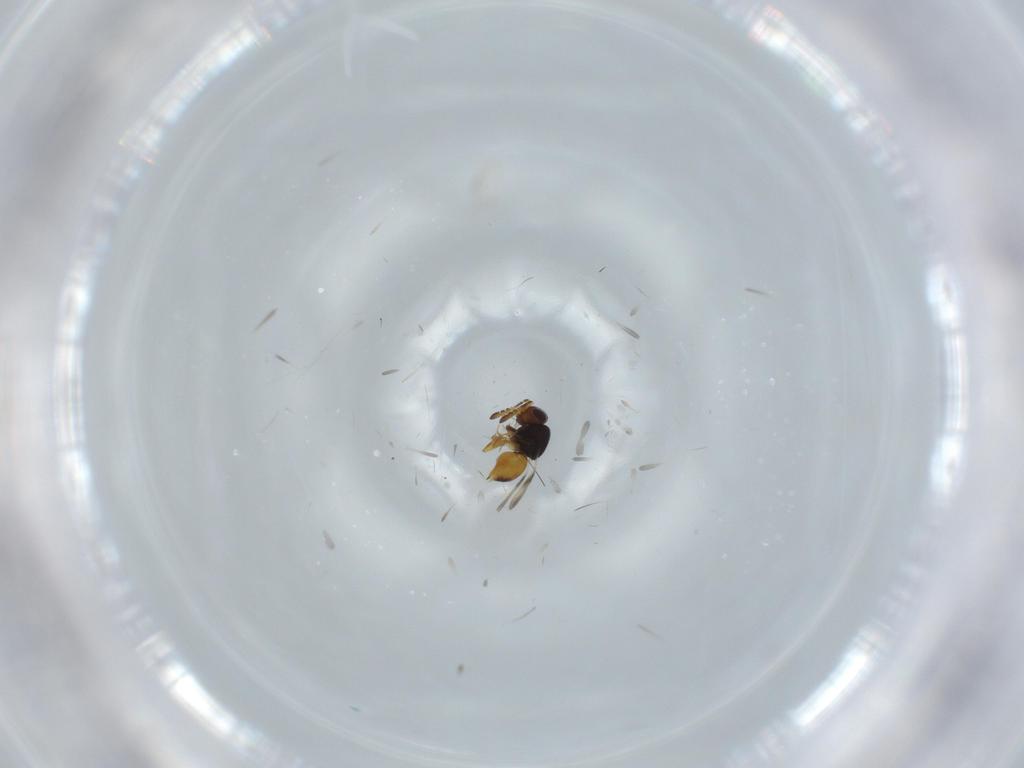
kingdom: Animalia
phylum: Arthropoda
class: Insecta
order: Hymenoptera
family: Scelionidae
